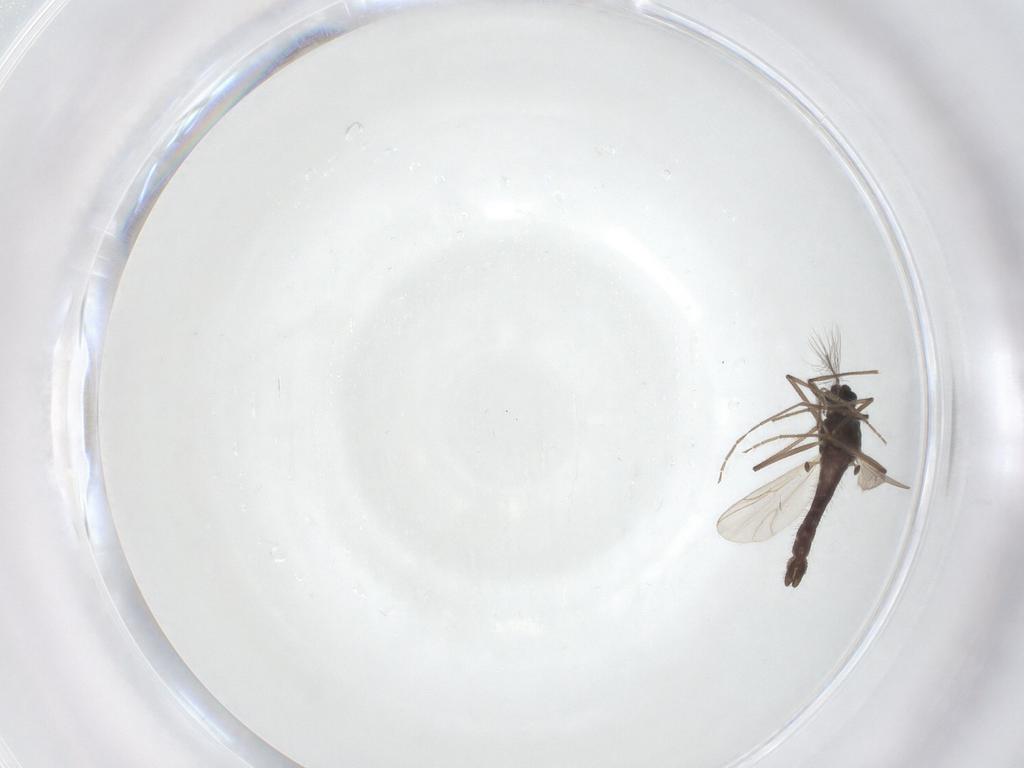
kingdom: Animalia
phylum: Arthropoda
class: Insecta
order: Diptera
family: Chironomidae
